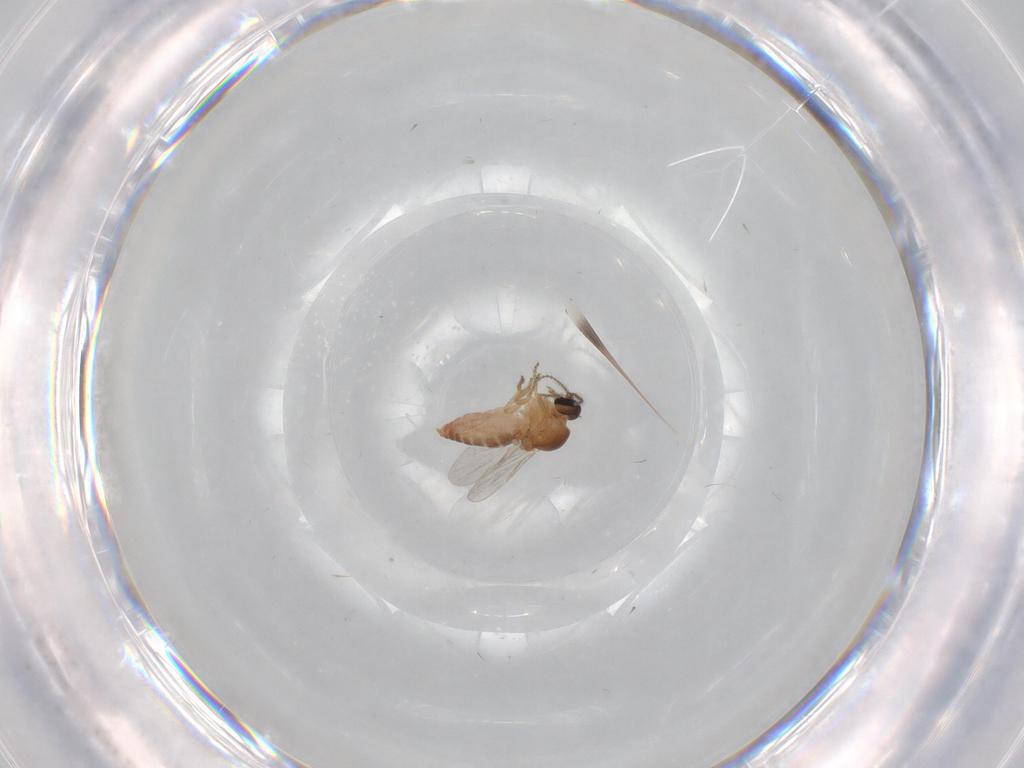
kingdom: Animalia
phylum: Arthropoda
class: Insecta
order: Diptera
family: Ceratopogonidae
